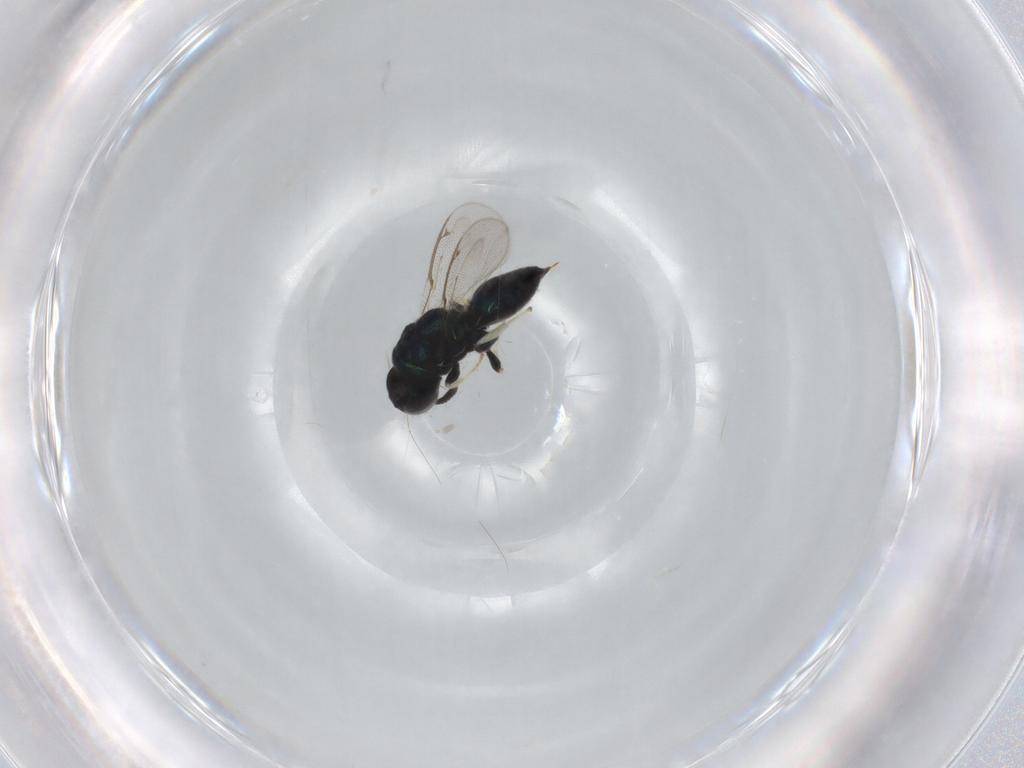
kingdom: Animalia
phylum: Arthropoda
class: Insecta
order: Hymenoptera
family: Herbertiidae
